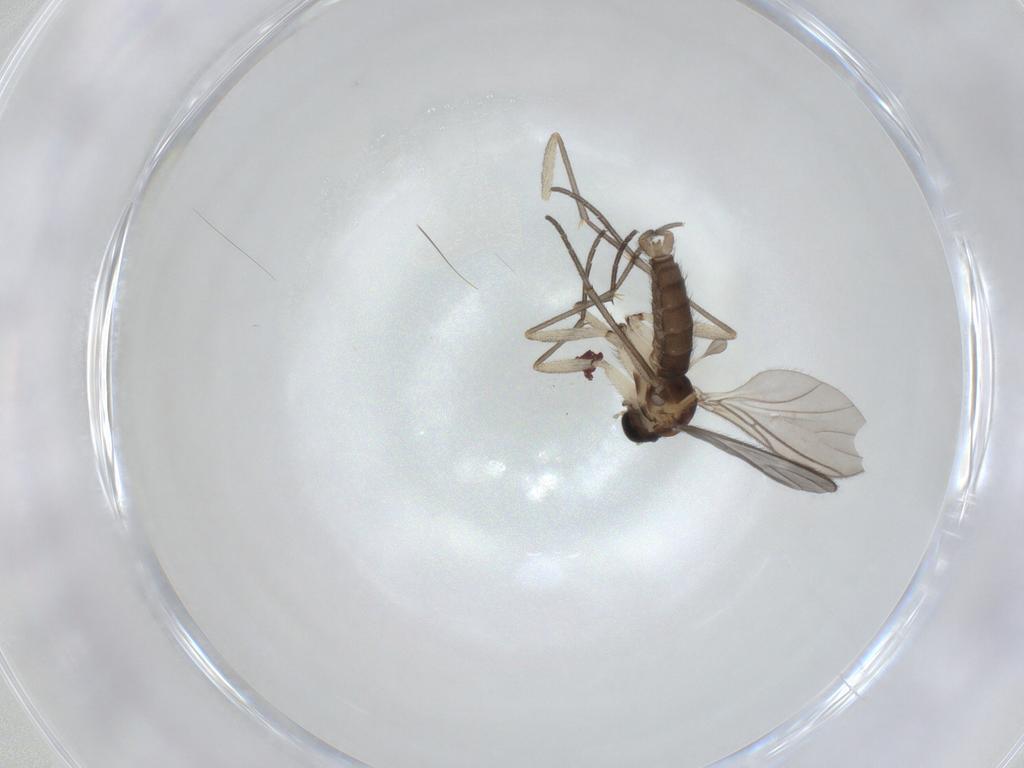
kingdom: Animalia
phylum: Arthropoda
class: Insecta
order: Diptera
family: Sciaridae
